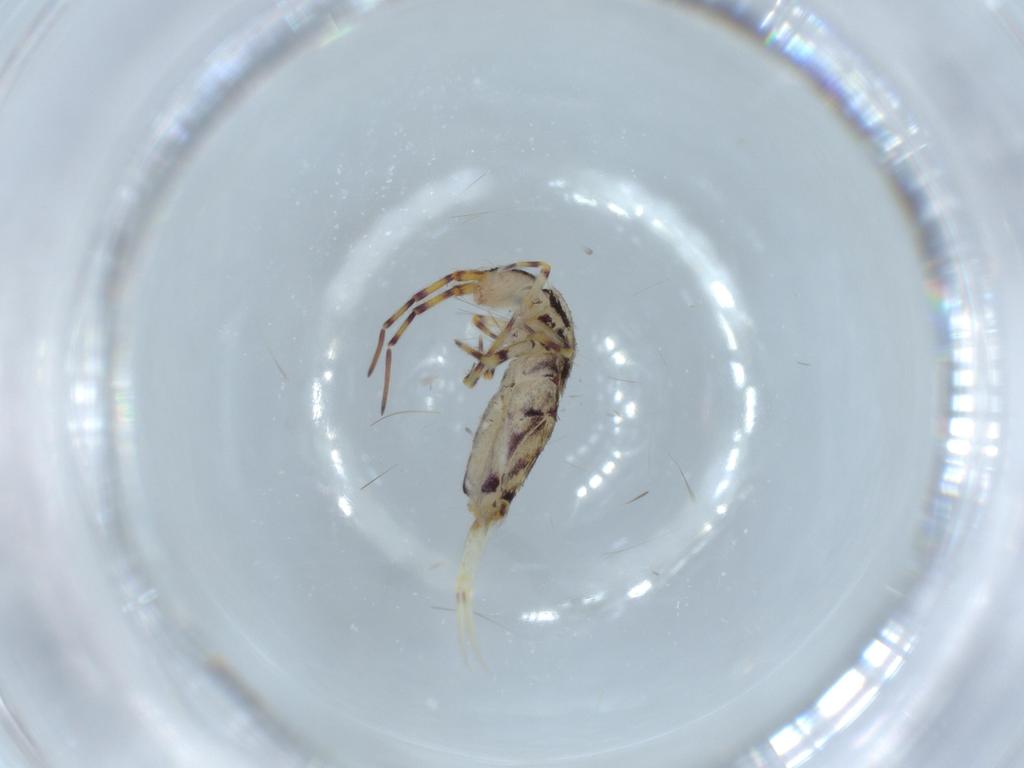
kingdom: Animalia
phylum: Arthropoda
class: Collembola
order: Entomobryomorpha
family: Entomobryidae
